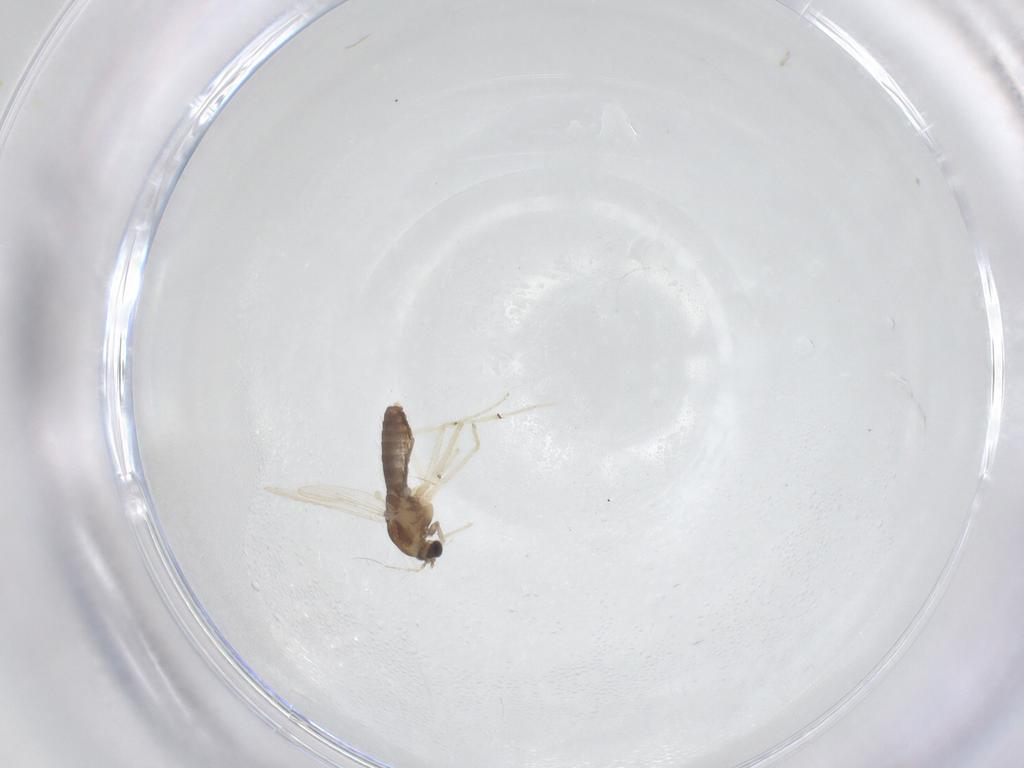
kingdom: Animalia
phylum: Arthropoda
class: Insecta
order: Diptera
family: Chironomidae
